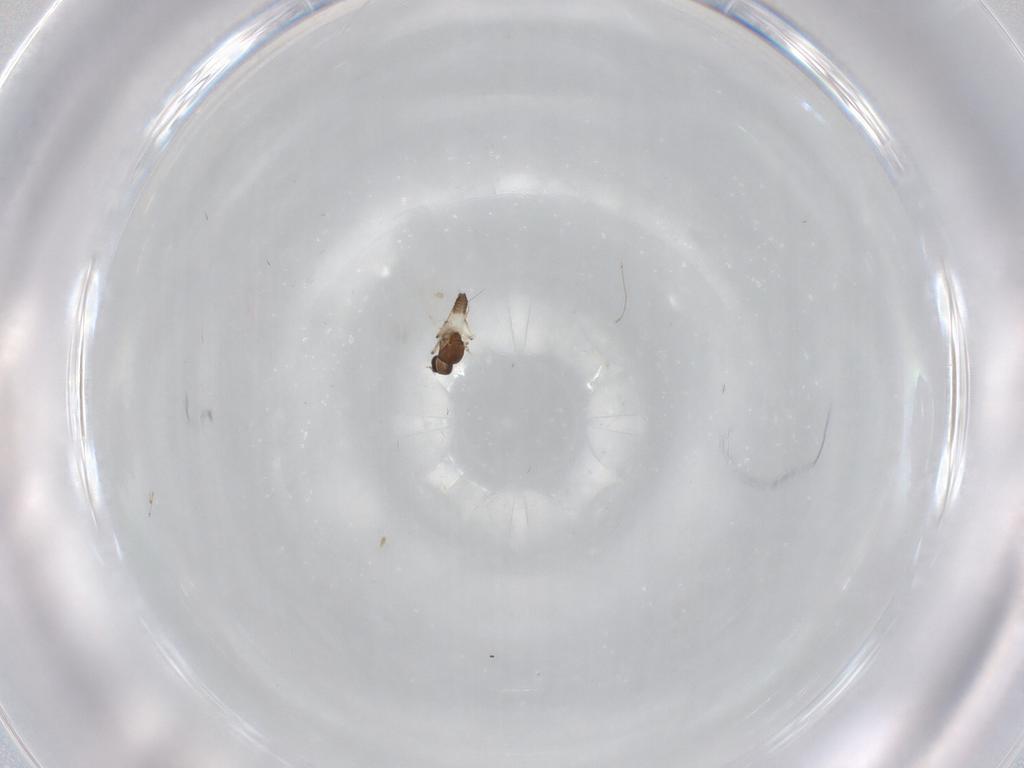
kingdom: Animalia
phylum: Arthropoda
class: Insecta
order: Diptera
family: Cecidomyiidae
